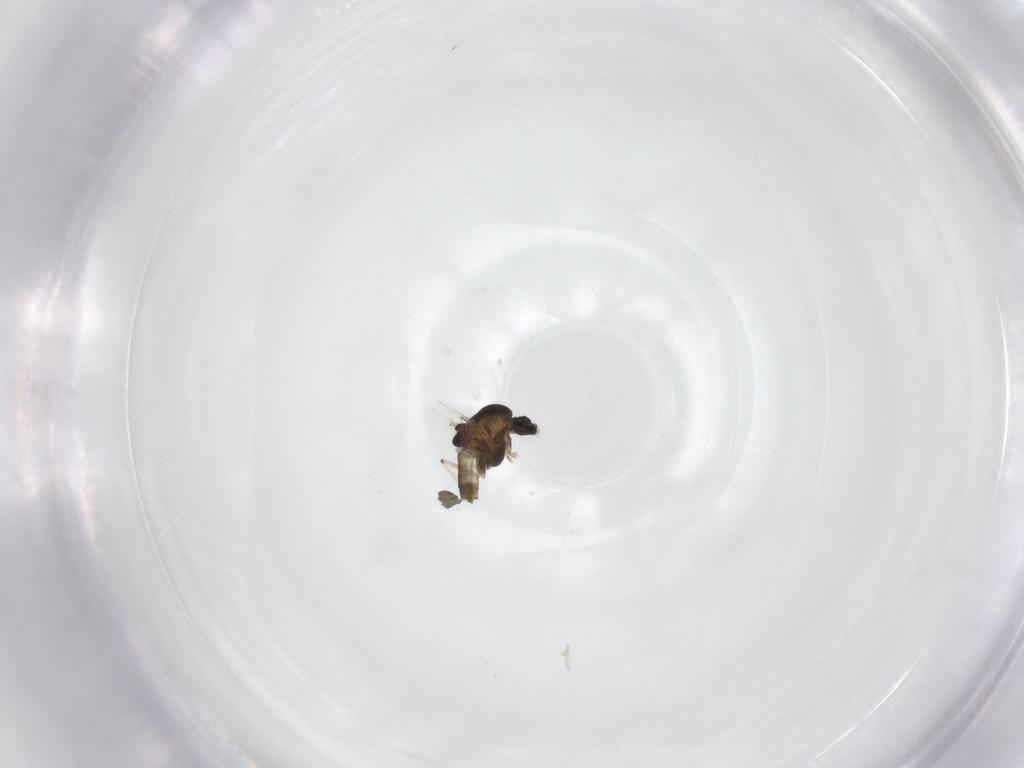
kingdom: Animalia
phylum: Arthropoda
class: Insecta
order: Diptera
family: Chironomidae
